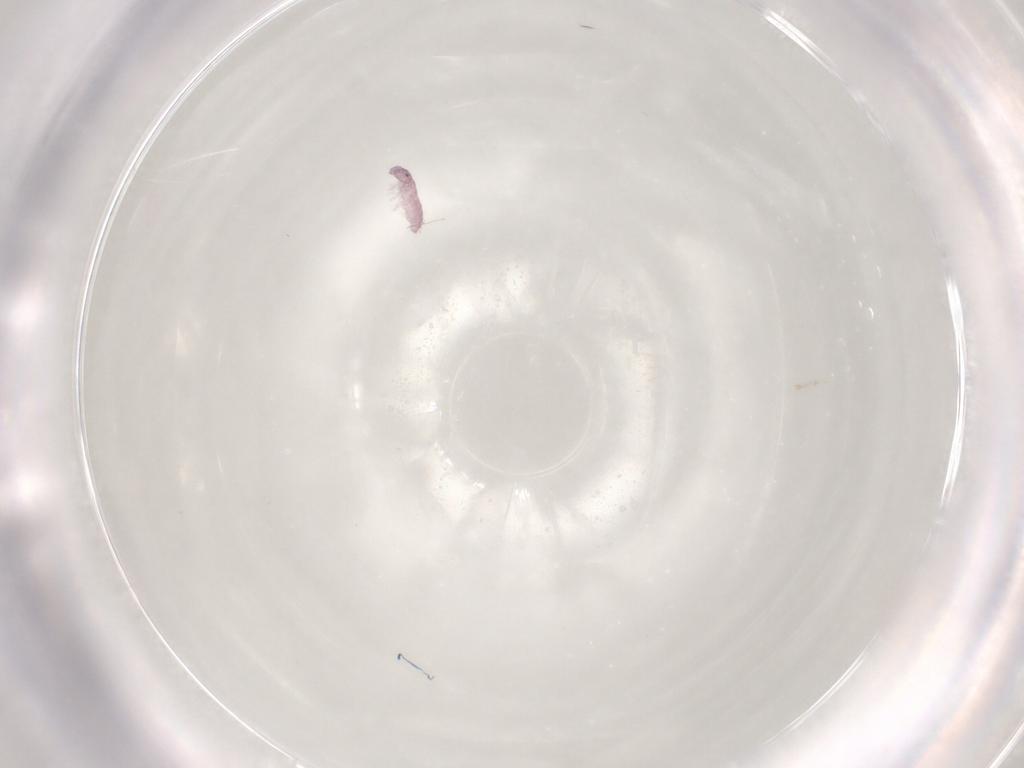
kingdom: Animalia
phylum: Arthropoda
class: Collembola
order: Poduromorpha
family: Hypogastruridae
